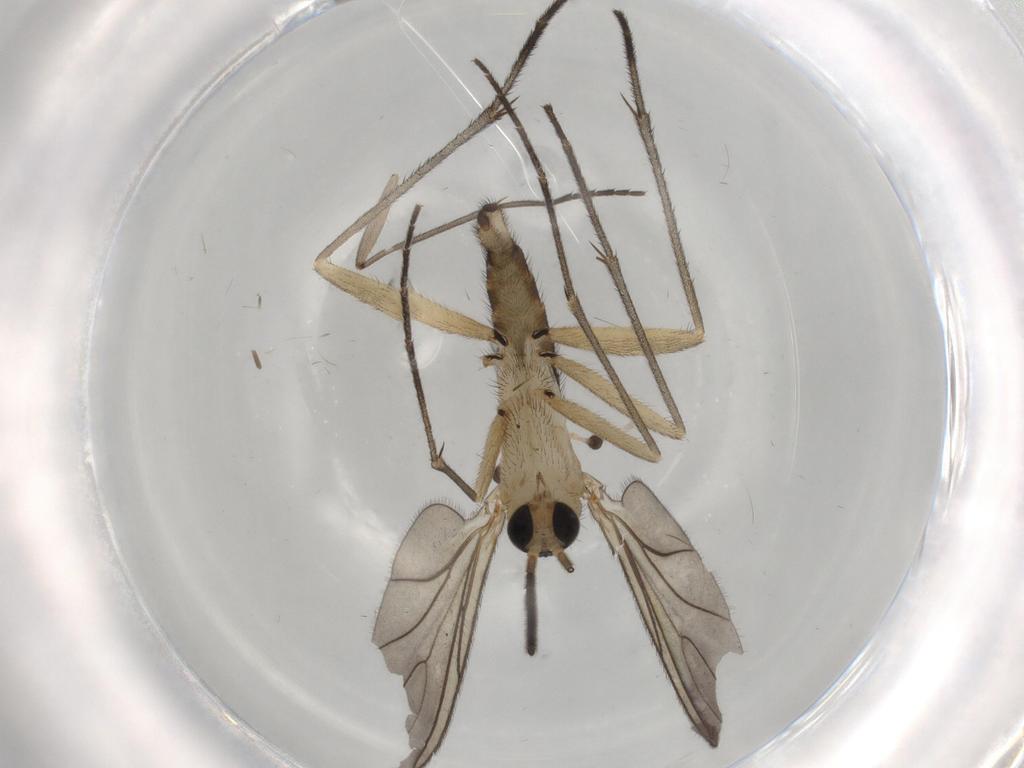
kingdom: Animalia
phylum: Arthropoda
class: Insecta
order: Diptera
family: Sciaridae
